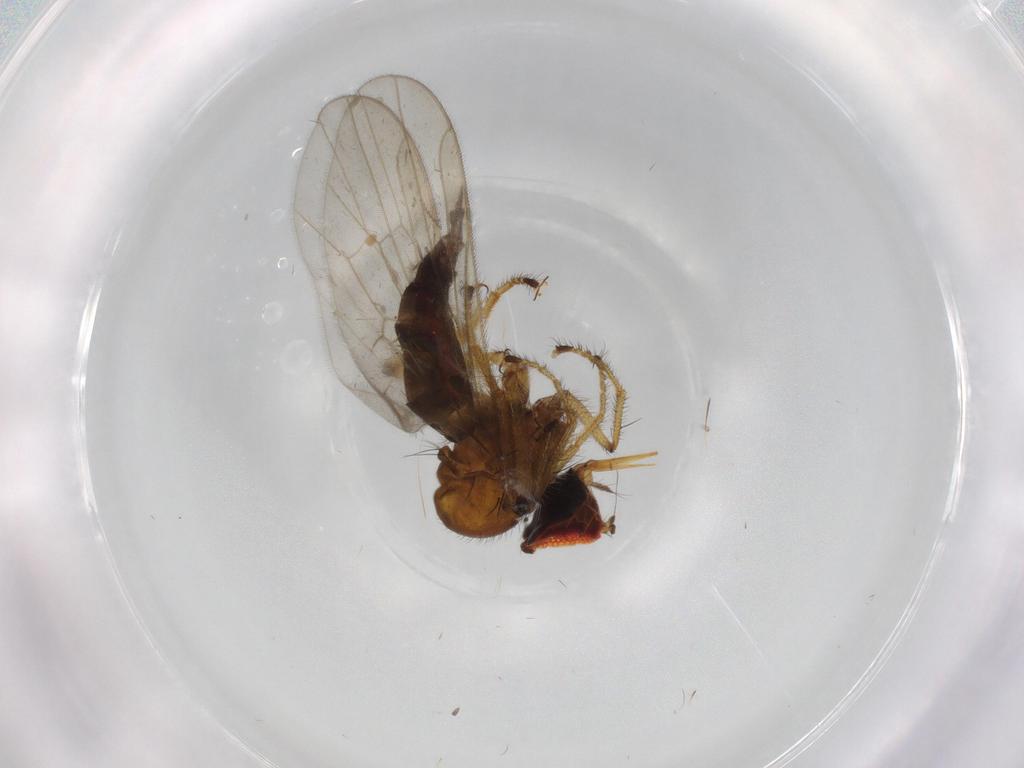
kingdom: Animalia
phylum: Arthropoda
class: Insecta
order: Diptera
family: Hybotidae
